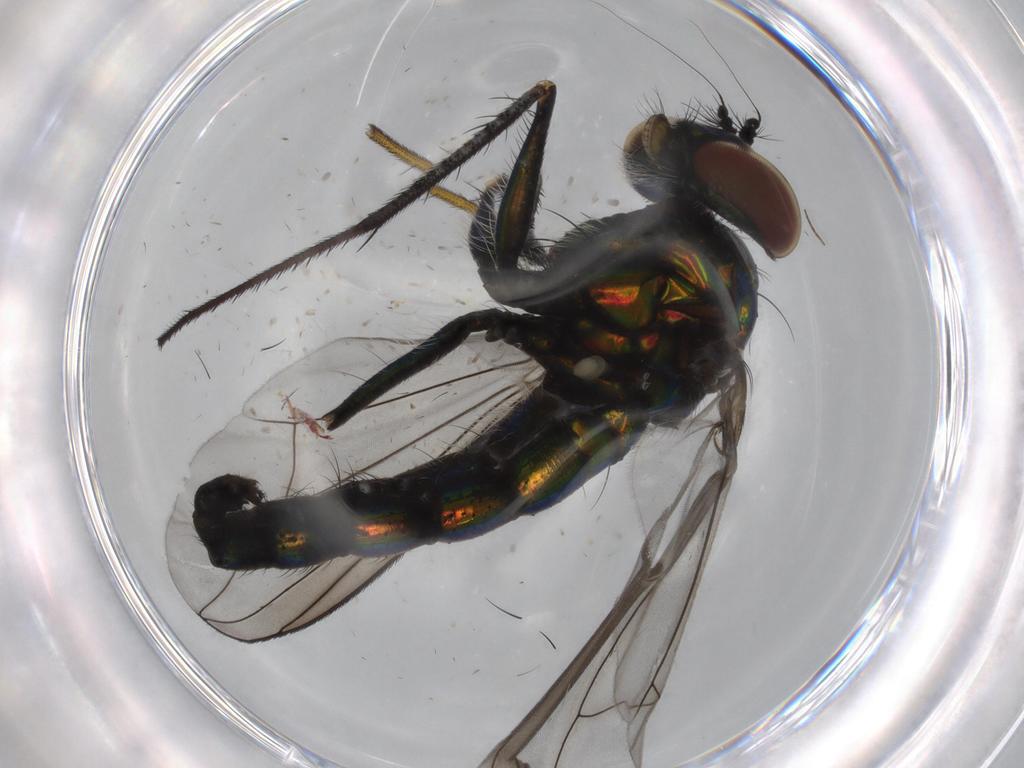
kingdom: Animalia
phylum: Arthropoda
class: Insecta
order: Diptera
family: Dolichopodidae
